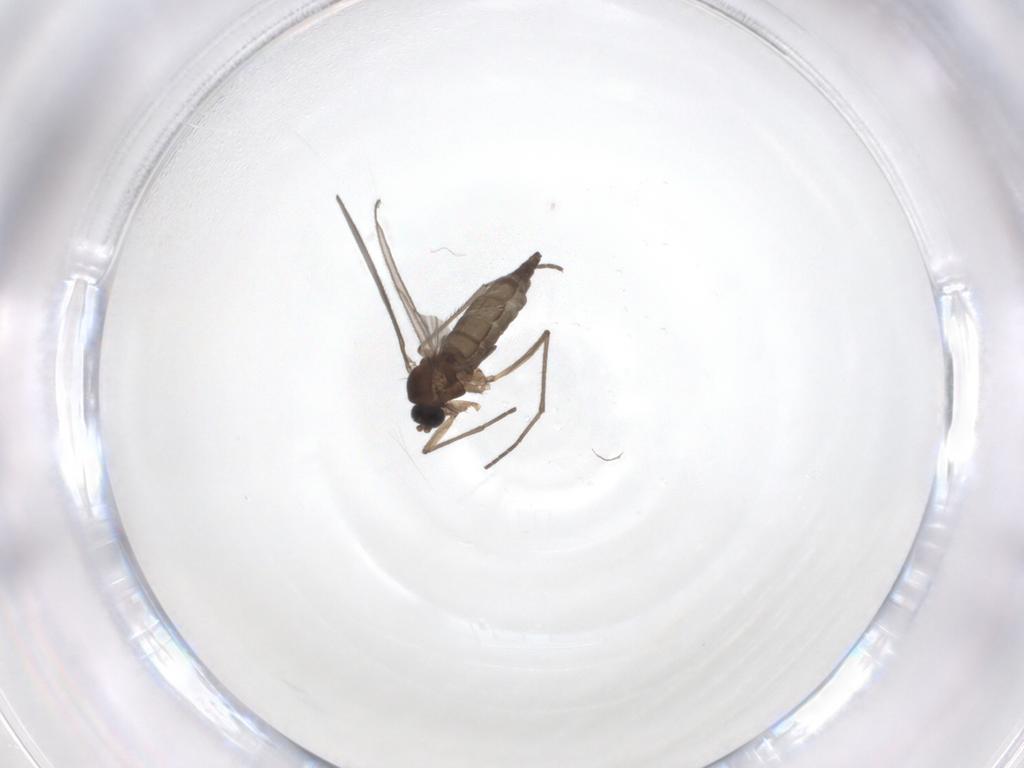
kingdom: Animalia
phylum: Arthropoda
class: Insecta
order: Diptera
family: Sciaridae
